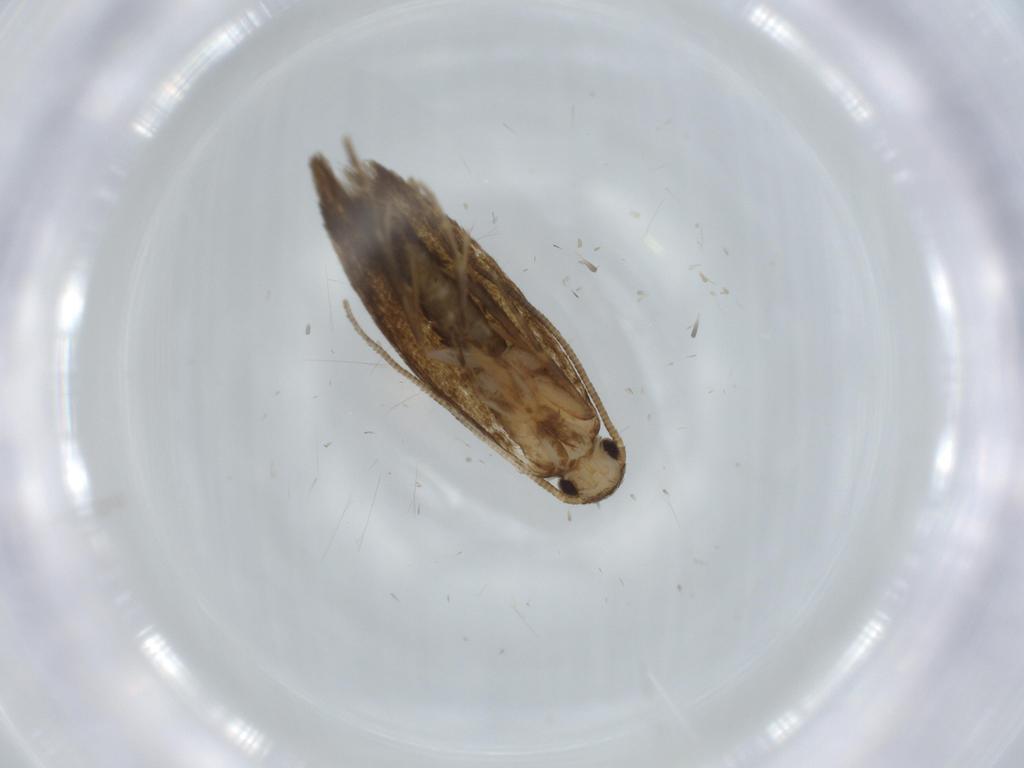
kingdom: Animalia
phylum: Arthropoda
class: Insecta
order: Lepidoptera
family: Tineidae
